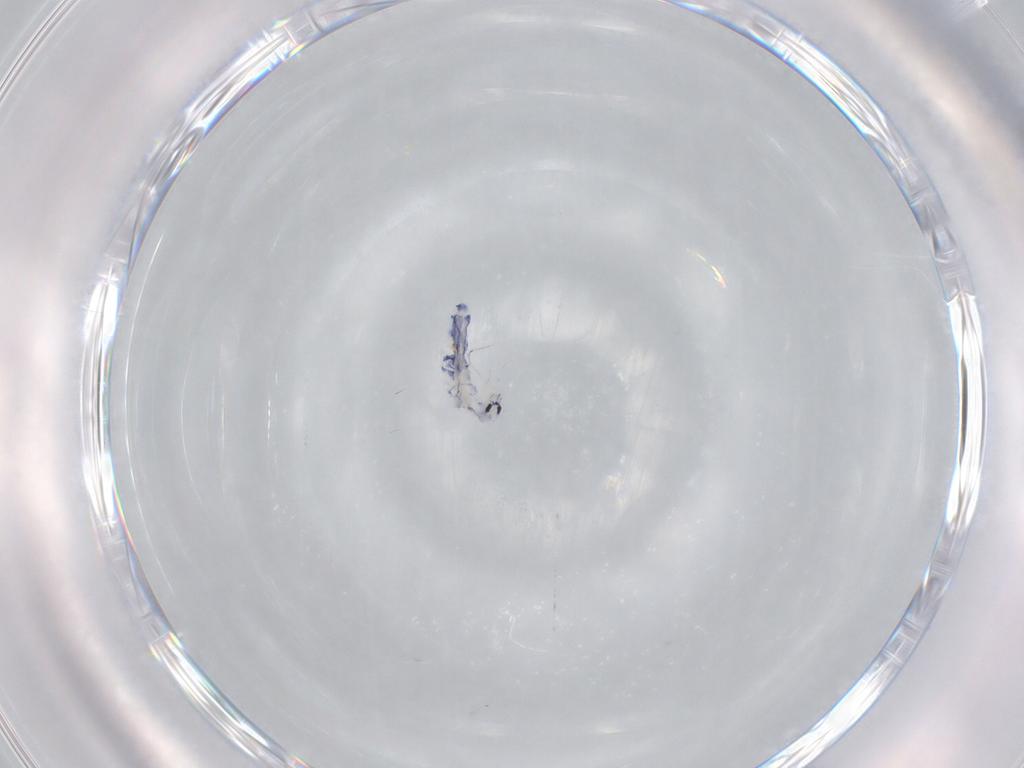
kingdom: Animalia
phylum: Arthropoda
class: Collembola
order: Entomobryomorpha
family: Entomobryidae
